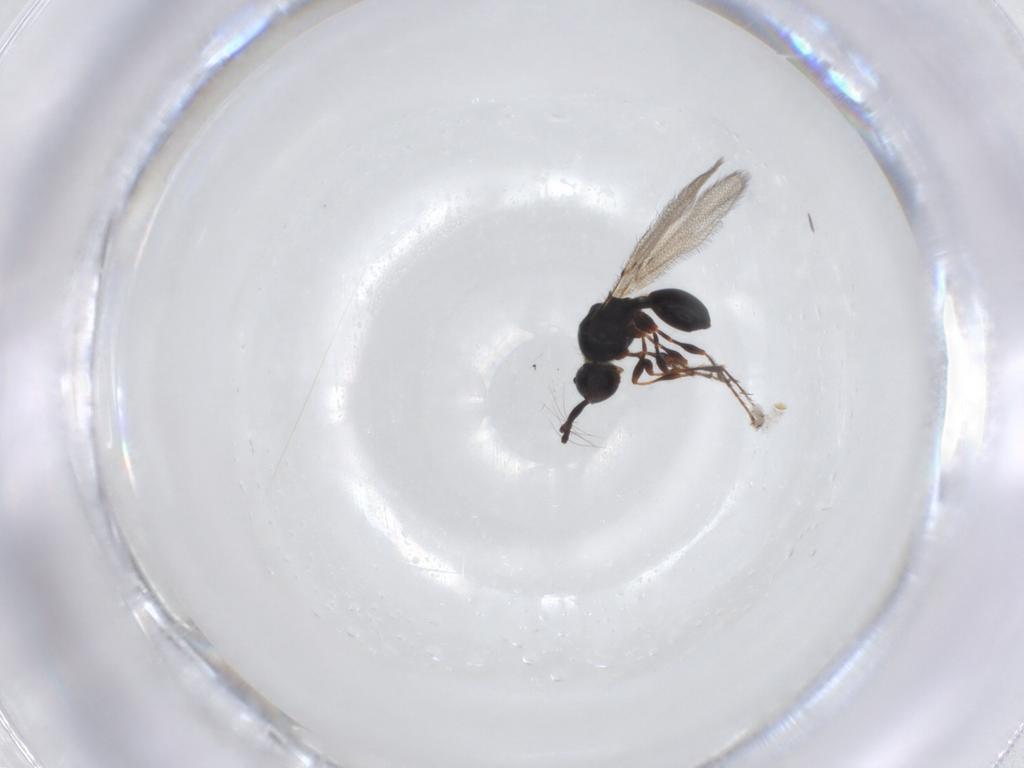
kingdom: Animalia
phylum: Arthropoda
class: Insecta
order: Hymenoptera
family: Diapriidae
